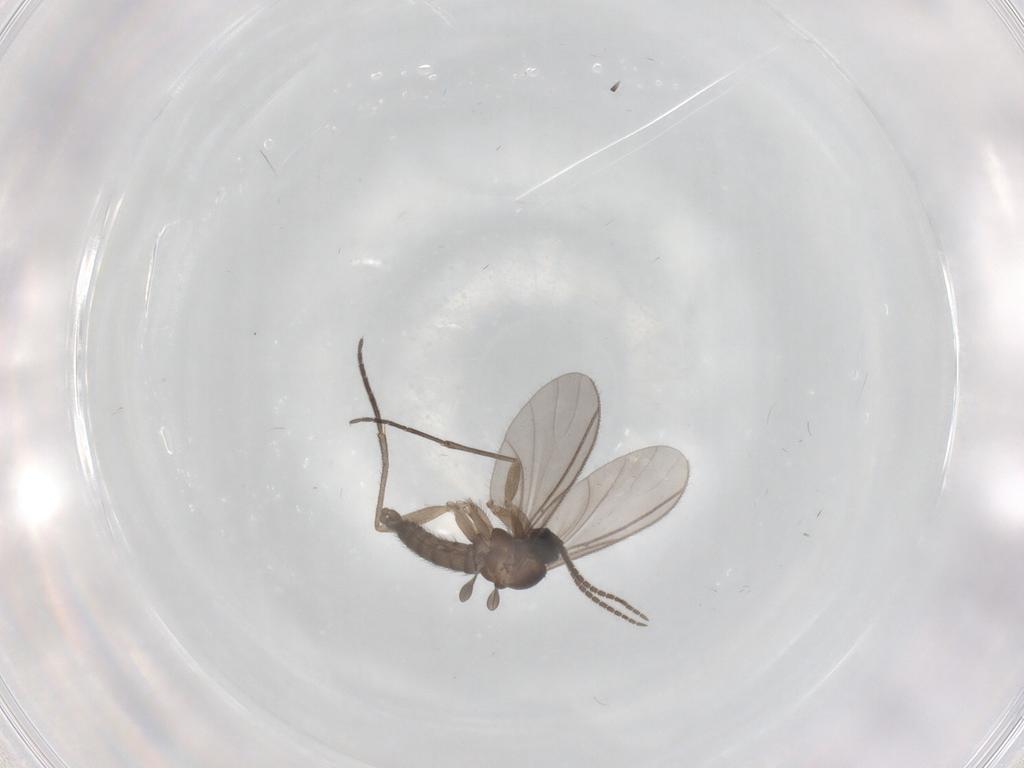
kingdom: Animalia
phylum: Arthropoda
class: Insecta
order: Diptera
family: Sciaridae
